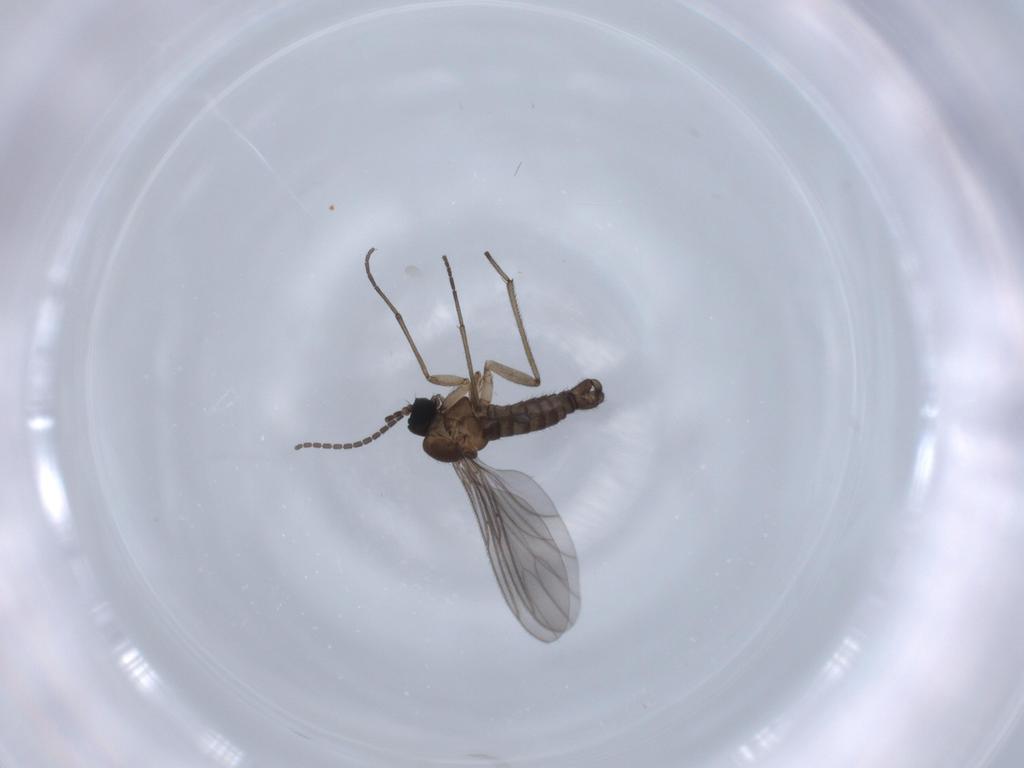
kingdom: Animalia
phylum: Arthropoda
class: Insecta
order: Diptera
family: Sciaridae
